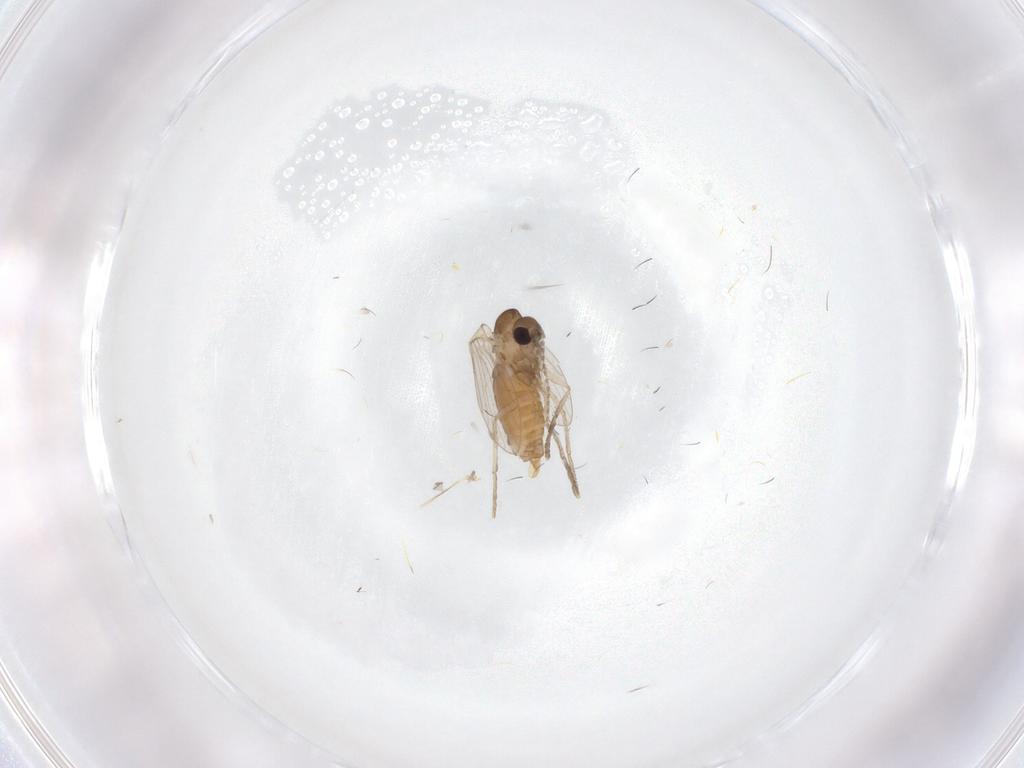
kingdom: Animalia
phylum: Arthropoda
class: Insecta
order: Diptera
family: Psychodidae
